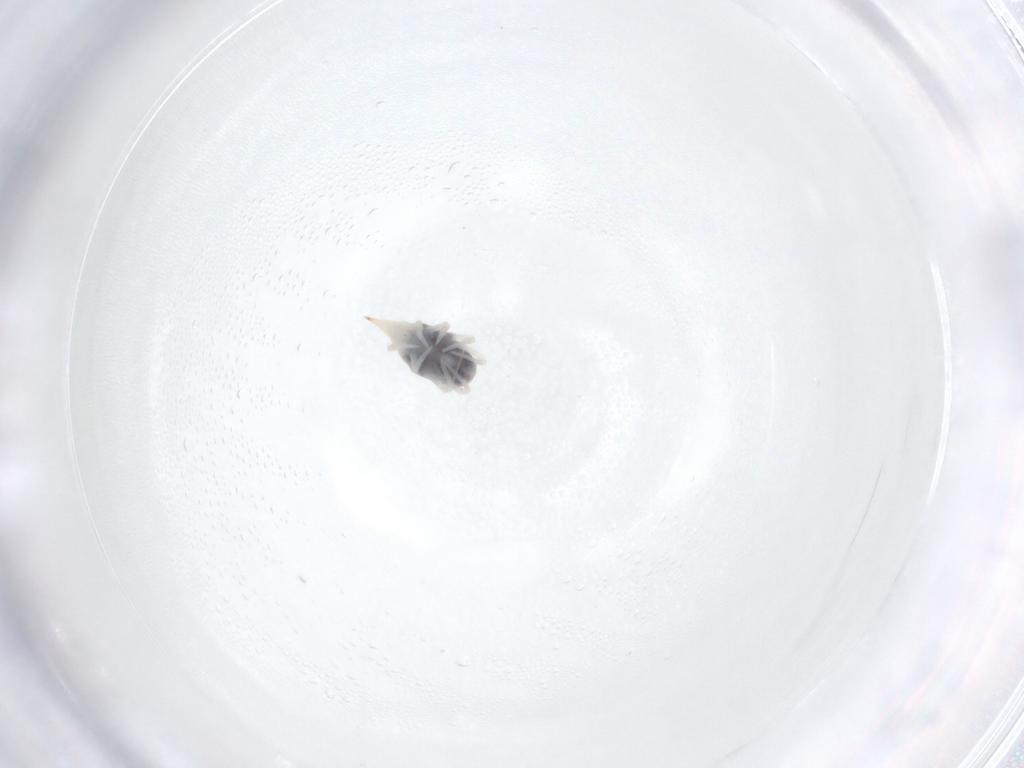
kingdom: Animalia
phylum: Arthropoda
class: Arachnida
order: Trombidiformes
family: Bdellidae
